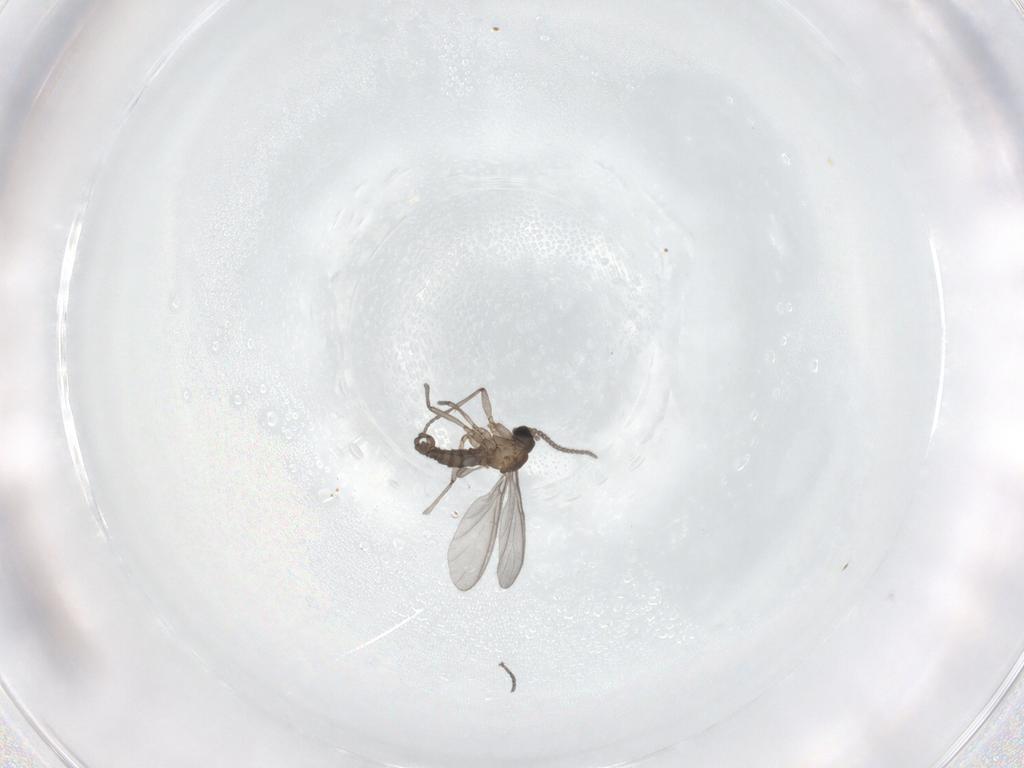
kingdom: Animalia
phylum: Arthropoda
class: Insecta
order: Diptera
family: Sciaridae
